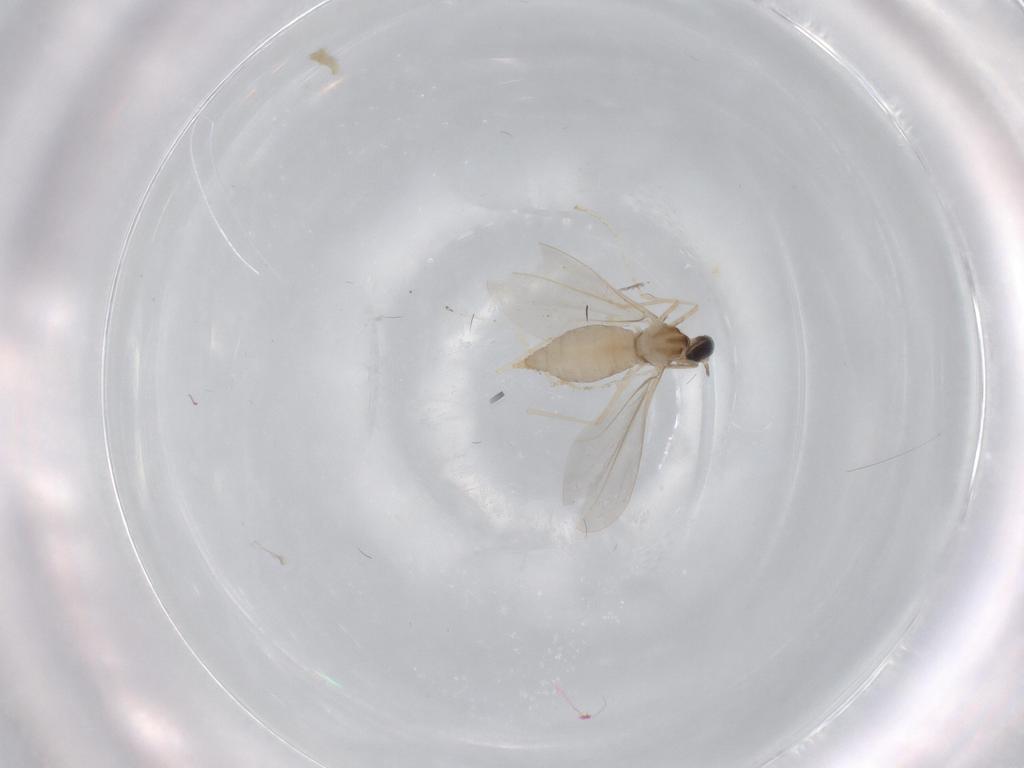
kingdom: Animalia
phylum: Arthropoda
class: Insecta
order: Diptera
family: Cecidomyiidae
